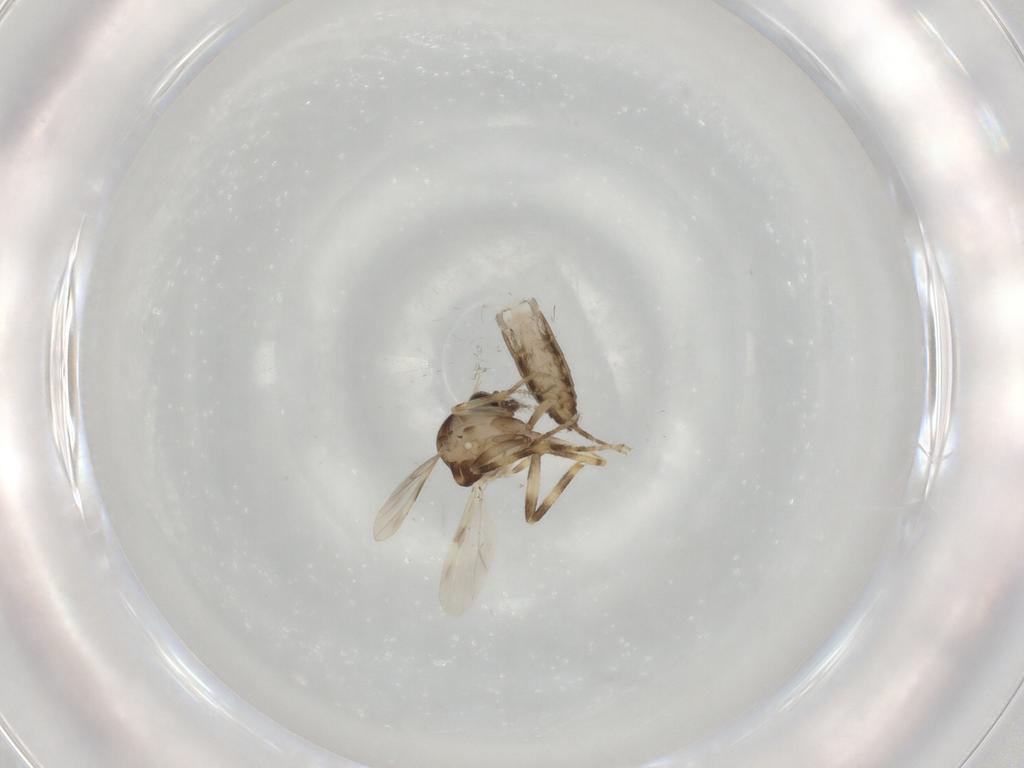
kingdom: Animalia
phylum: Arthropoda
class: Insecta
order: Diptera
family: Ceratopogonidae
